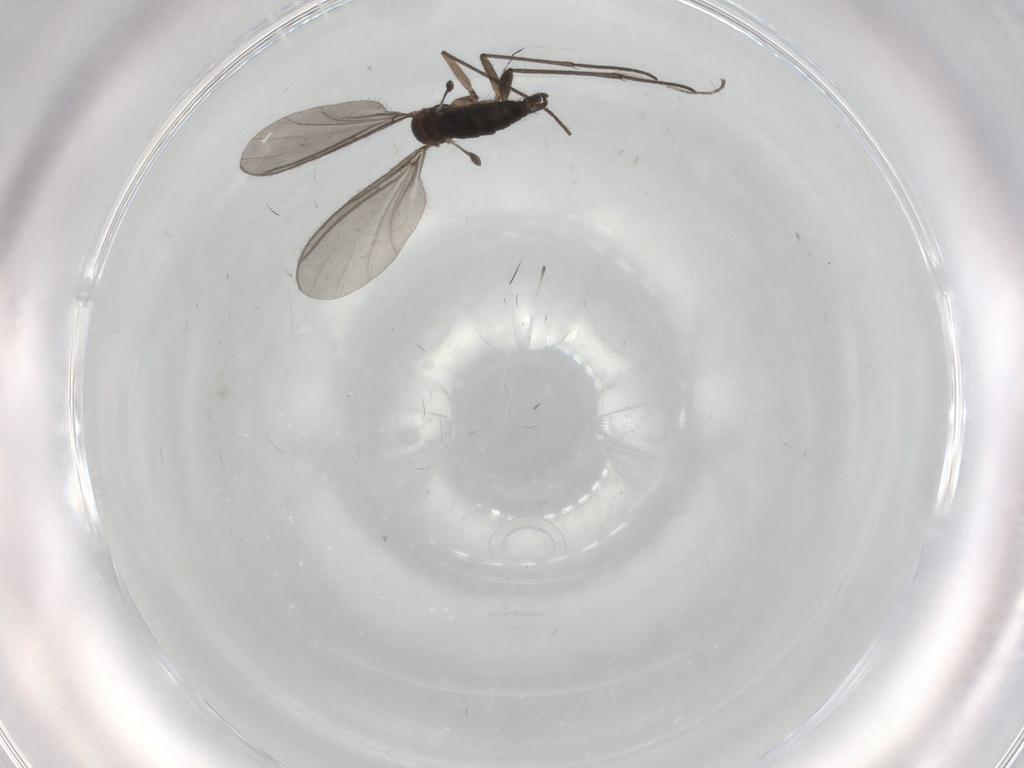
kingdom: Animalia
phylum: Arthropoda
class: Insecta
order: Diptera
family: Sciaridae
